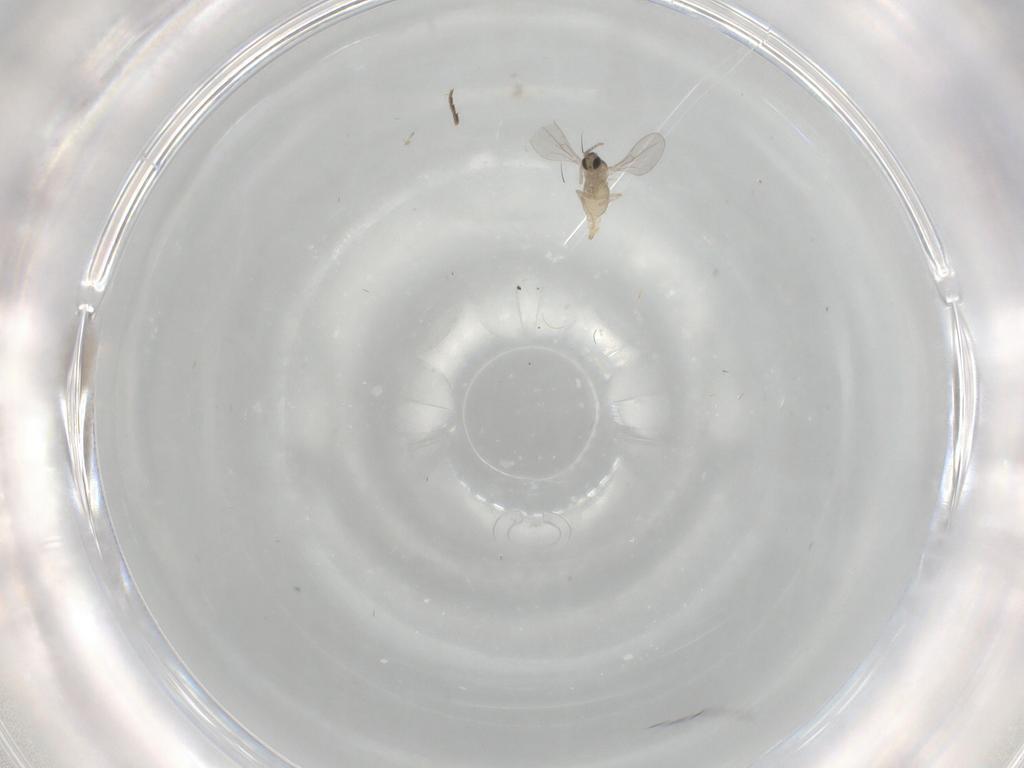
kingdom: Animalia
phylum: Arthropoda
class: Insecta
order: Diptera
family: Cecidomyiidae
